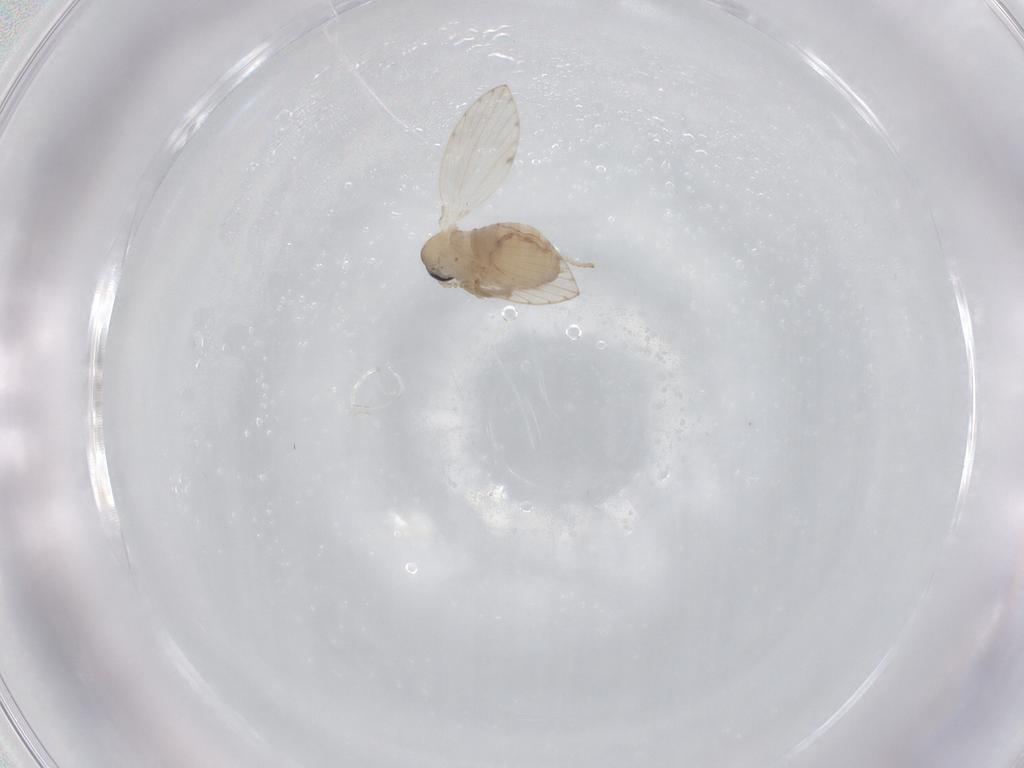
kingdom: Animalia
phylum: Arthropoda
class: Insecta
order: Diptera
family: Psychodidae
